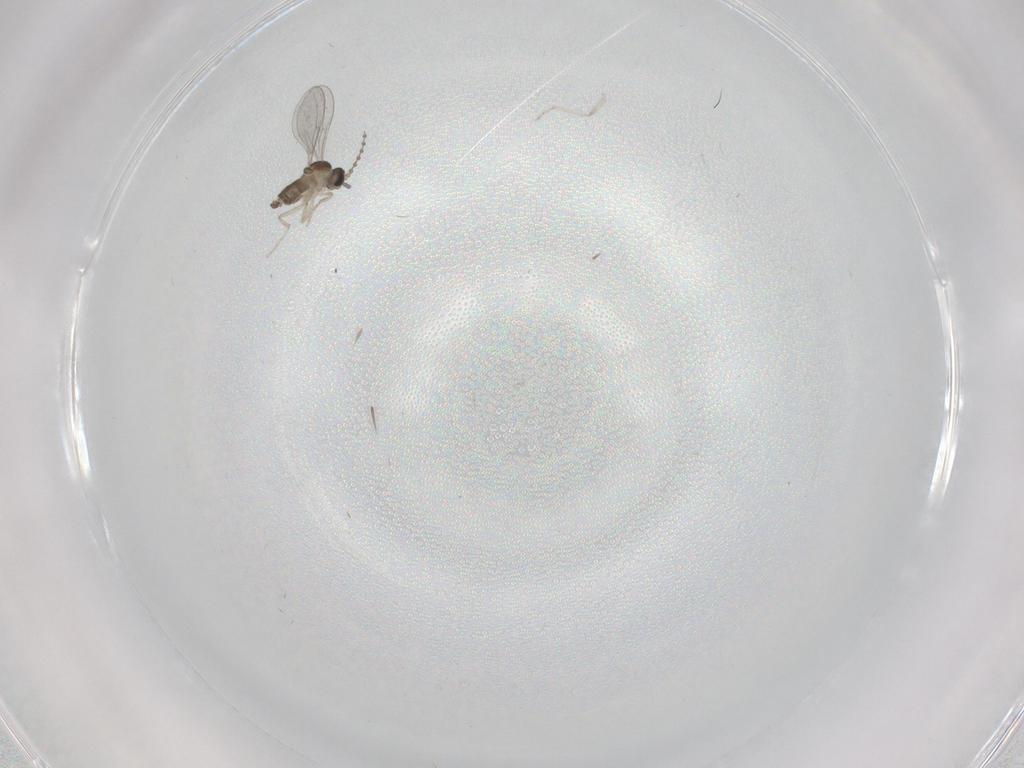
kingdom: Animalia
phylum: Arthropoda
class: Insecta
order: Diptera
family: Cecidomyiidae
